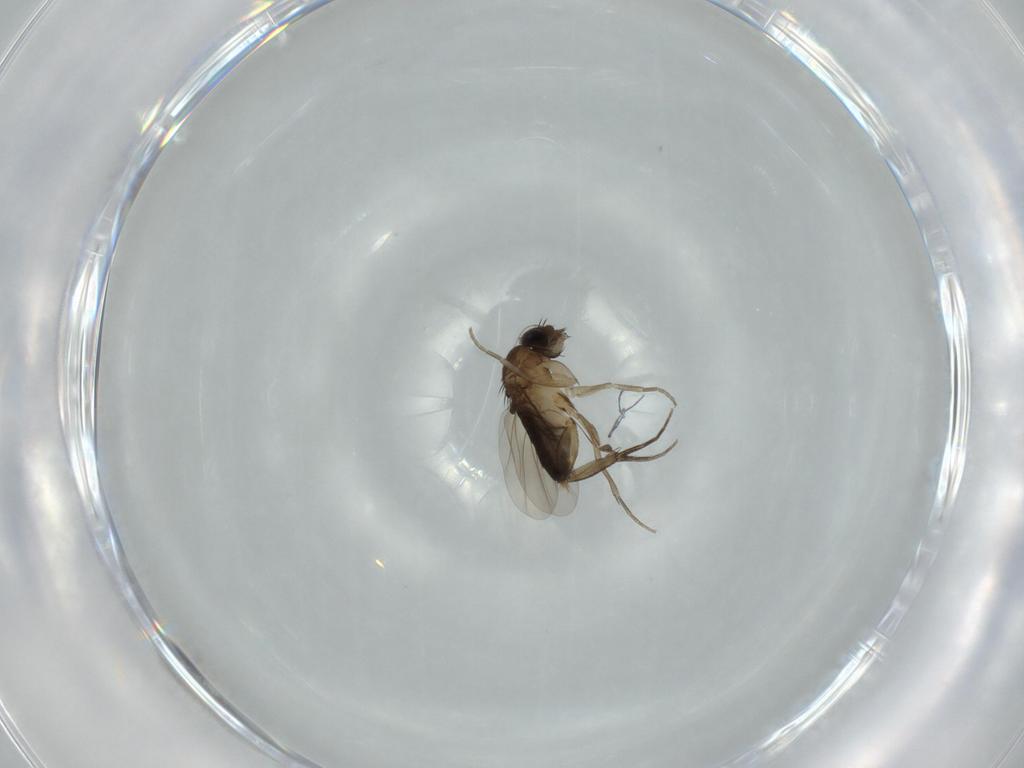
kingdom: Animalia
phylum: Arthropoda
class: Insecta
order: Diptera
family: Phoridae
